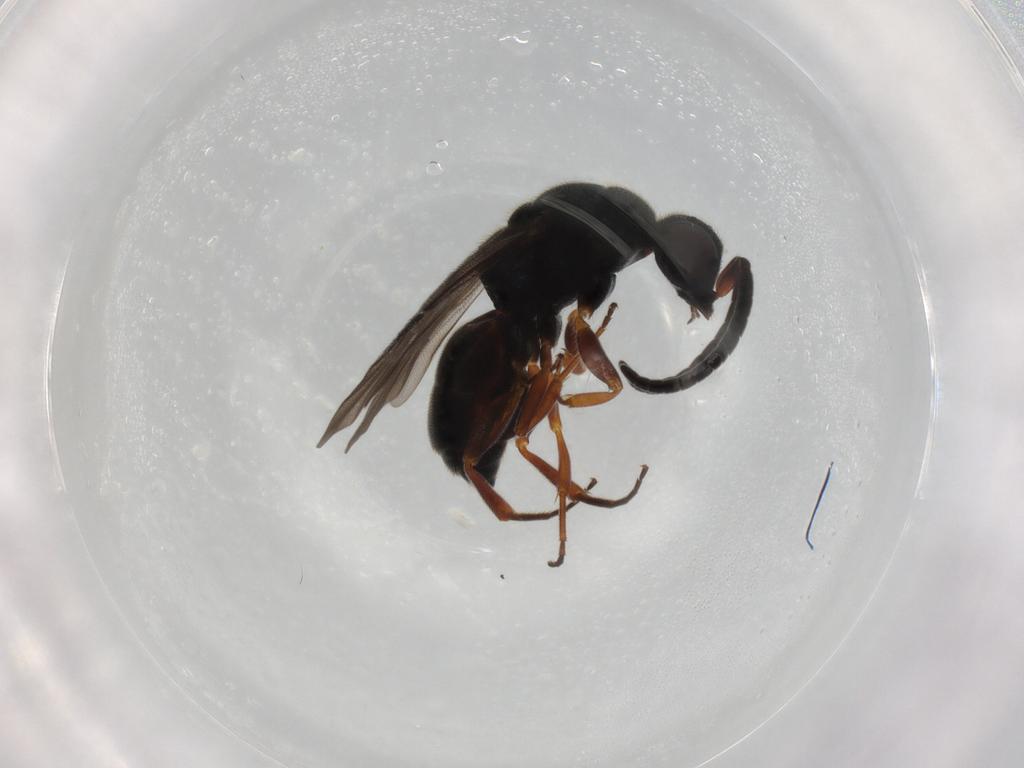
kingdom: Animalia
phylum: Arthropoda
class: Insecta
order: Hymenoptera
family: Chrysididae
